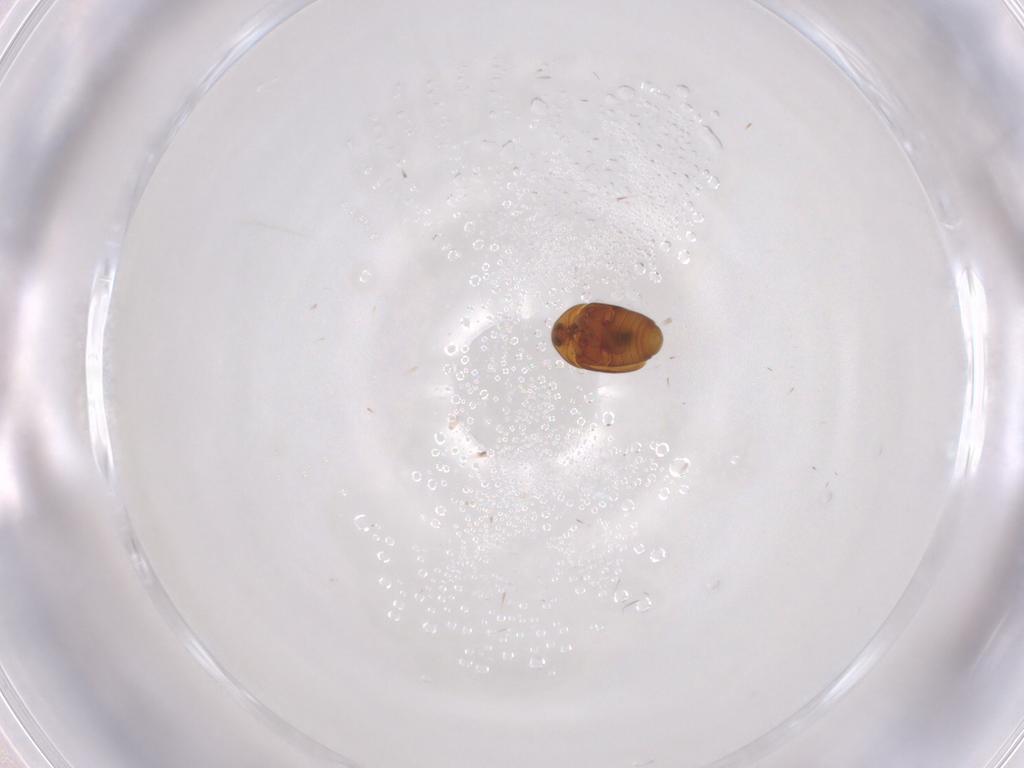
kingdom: Animalia
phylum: Arthropoda
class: Insecta
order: Coleoptera
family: Corylophidae
